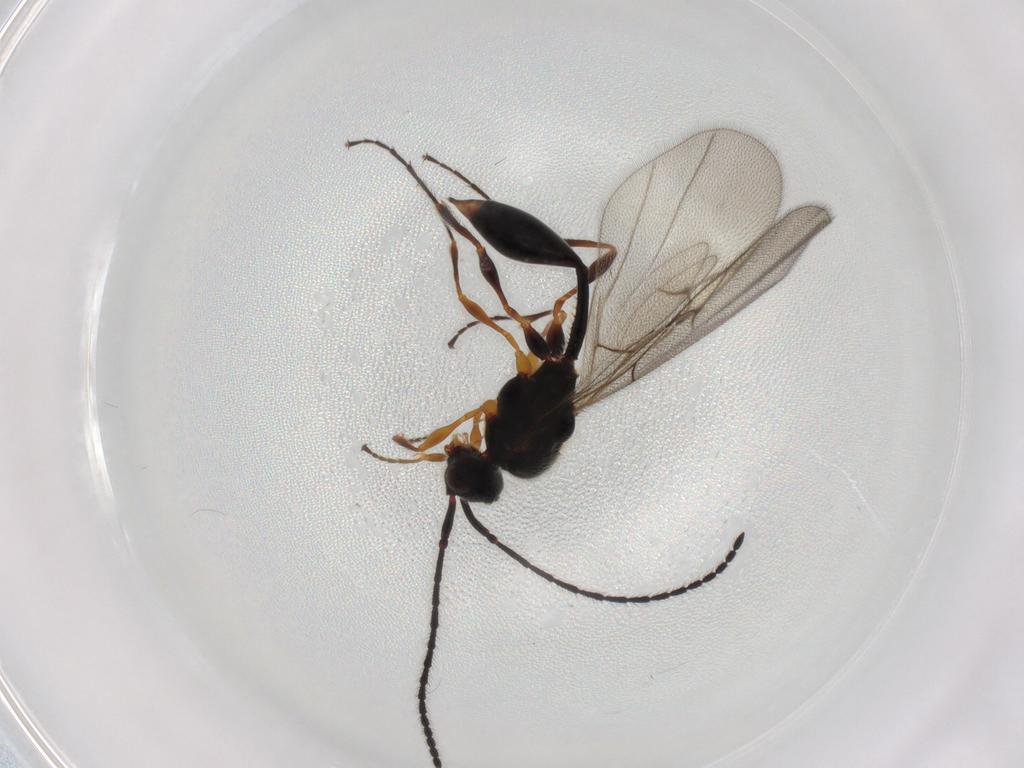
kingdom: Animalia
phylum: Arthropoda
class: Insecta
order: Hymenoptera
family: Diapriidae
